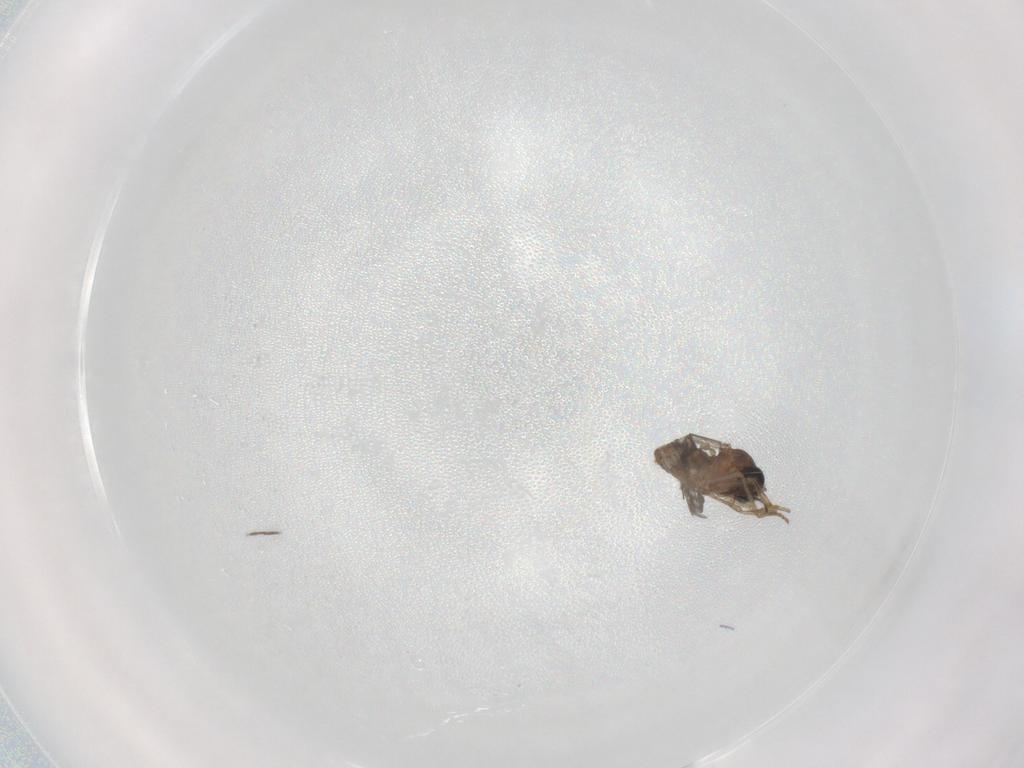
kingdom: Animalia
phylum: Arthropoda
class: Insecta
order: Diptera
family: Ceratopogonidae
